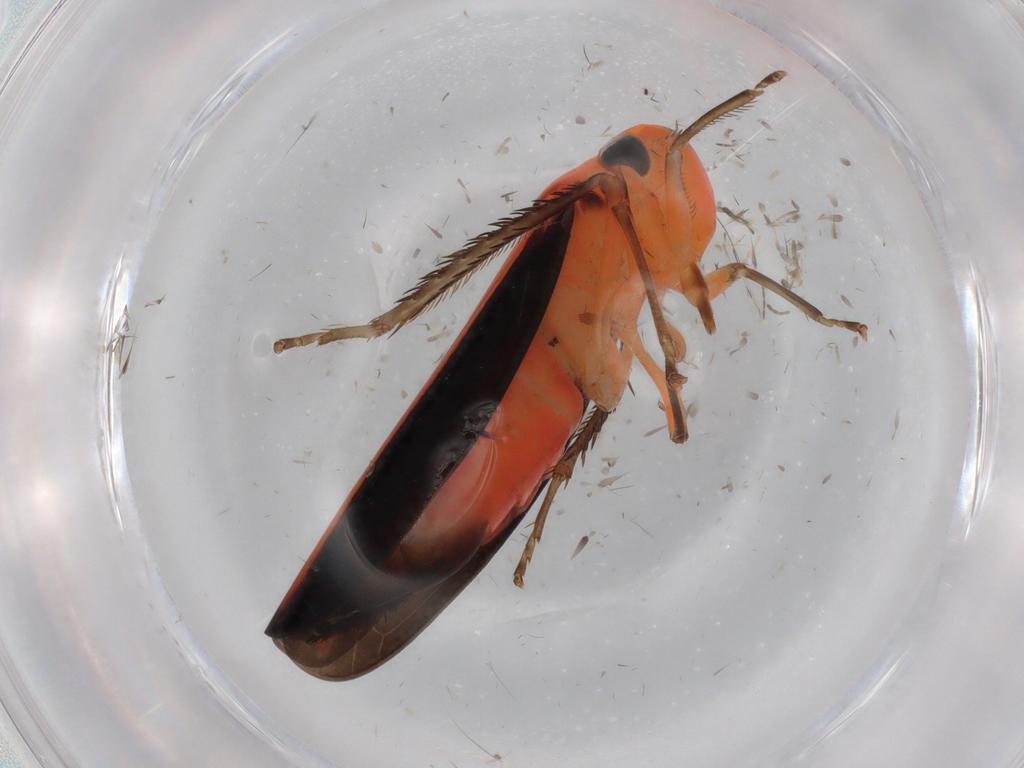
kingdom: Animalia
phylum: Arthropoda
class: Insecta
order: Hemiptera
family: Cicadellidae
